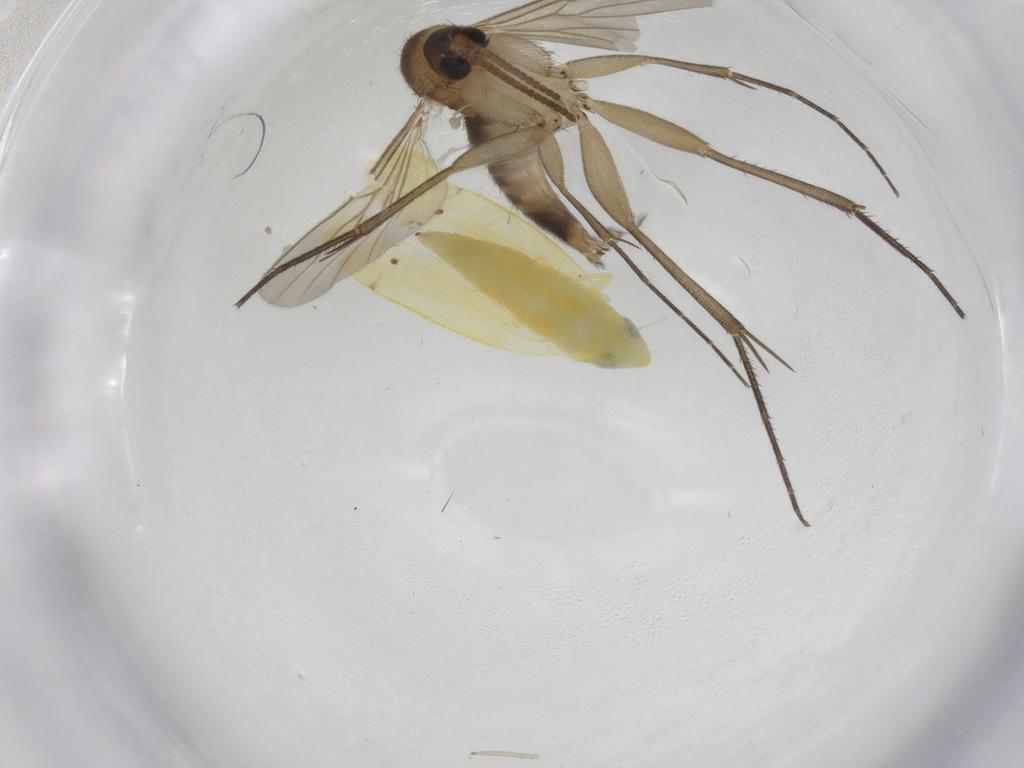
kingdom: Animalia
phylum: Arthropoda
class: Insecta
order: Hemiptera
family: Cicadellidae
